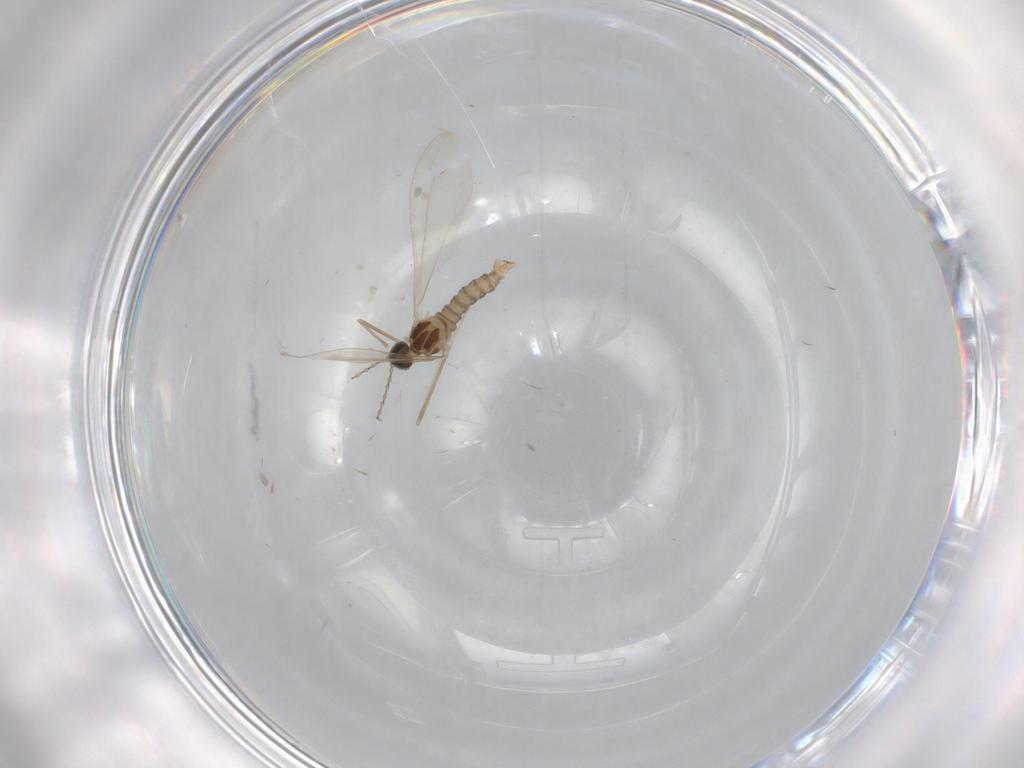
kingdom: Animalia
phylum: Arthropoda
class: Insecta
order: Diptera
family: Cecidomyiidae
